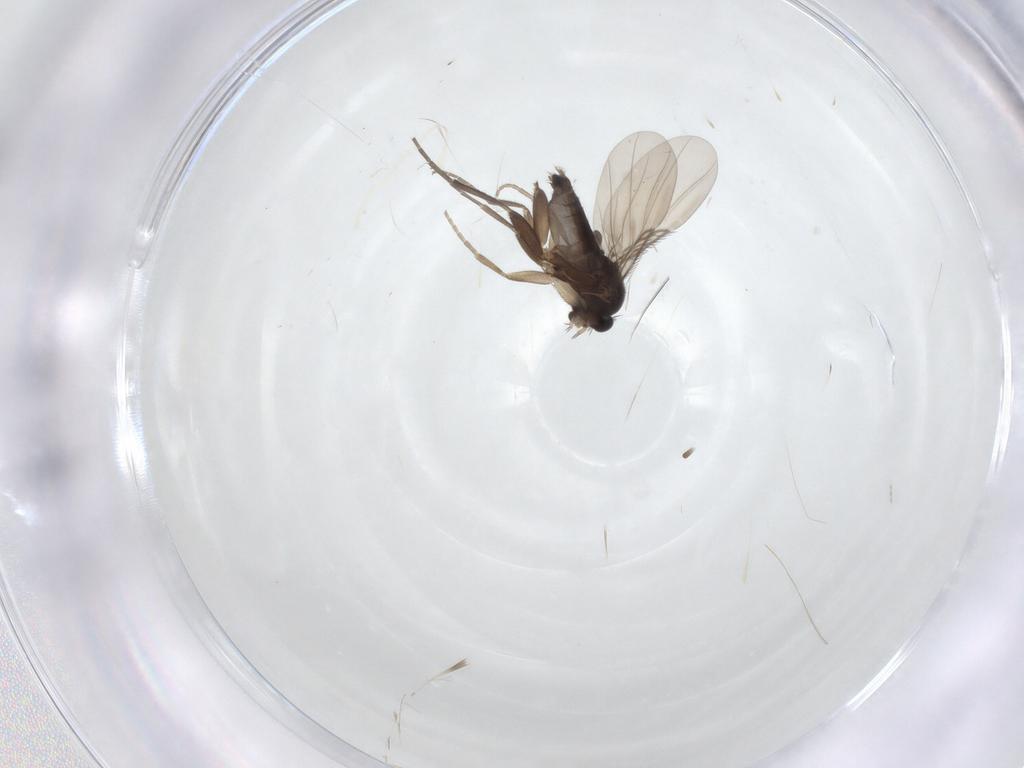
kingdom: Animalia
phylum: Arthropoda
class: Insecta
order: Diptera
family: Phoridae
